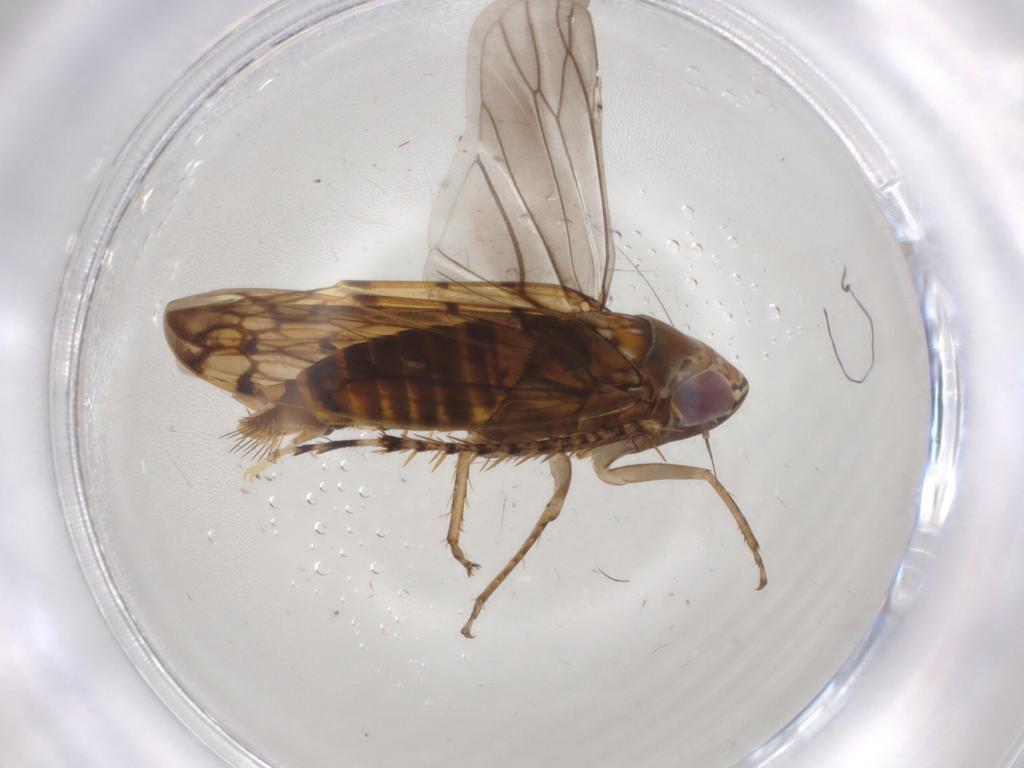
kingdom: Animalia
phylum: Arthropoda
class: Insecta
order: Hemiptera
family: Cicadellidae
